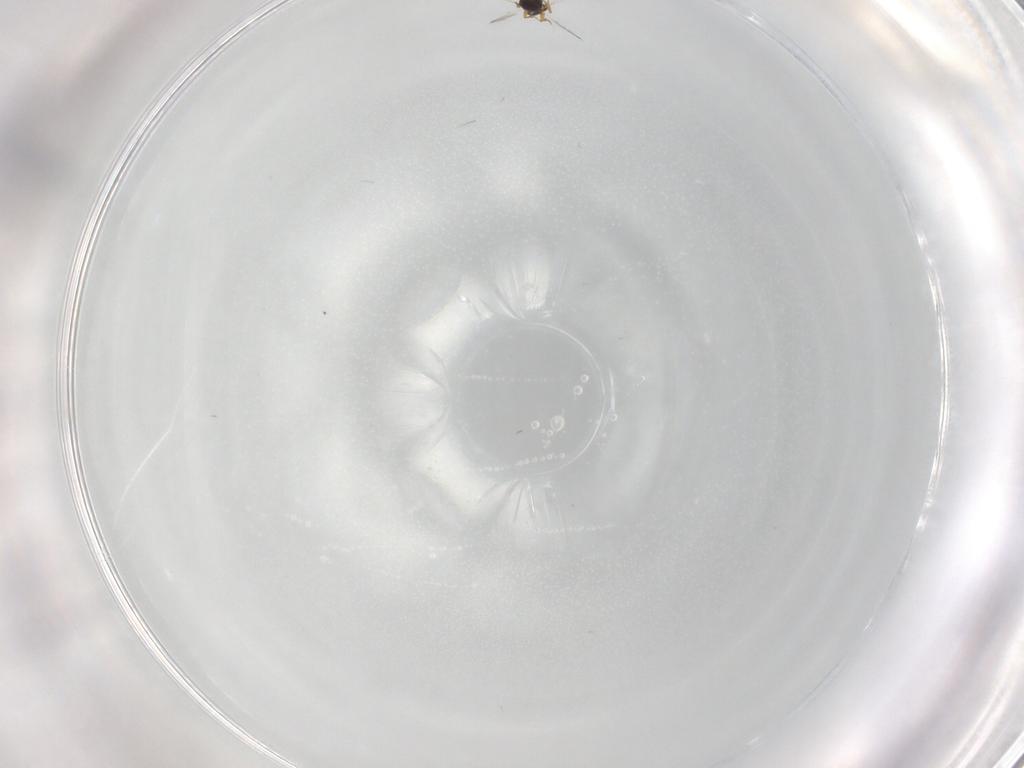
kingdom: Animalia
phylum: Arthropoda
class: Insecta
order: Hymenoptera
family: Platygastridae
